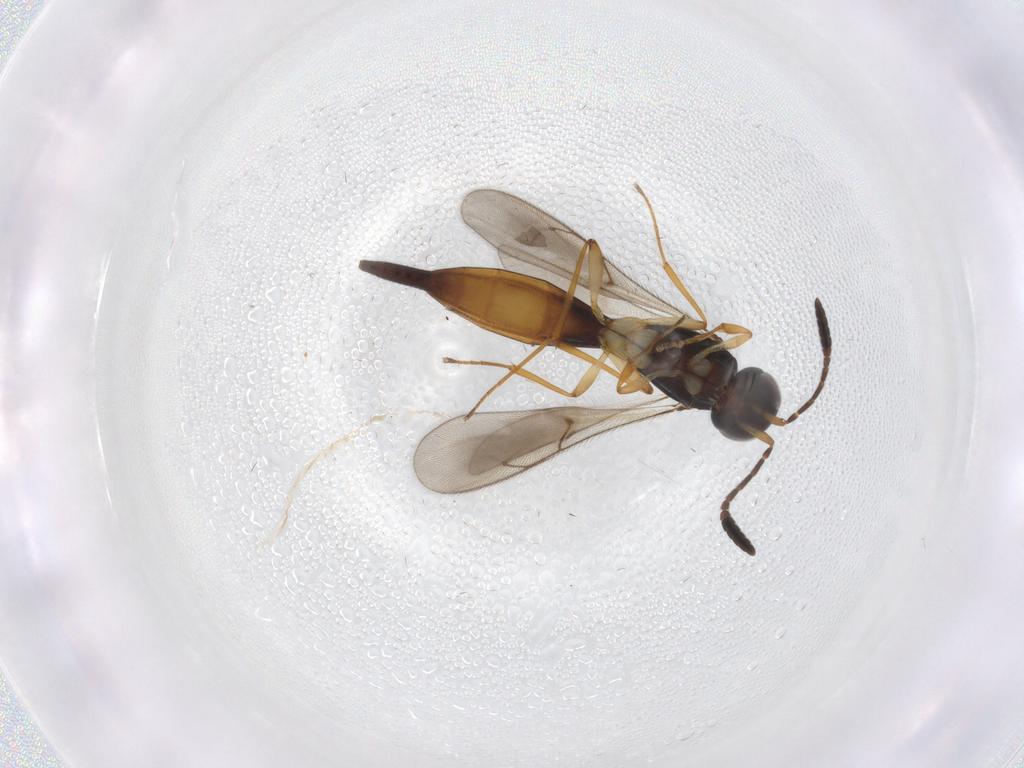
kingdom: Animalia
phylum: Arthropoda
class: Insecta
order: Hymenoptera
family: Scelionidae
